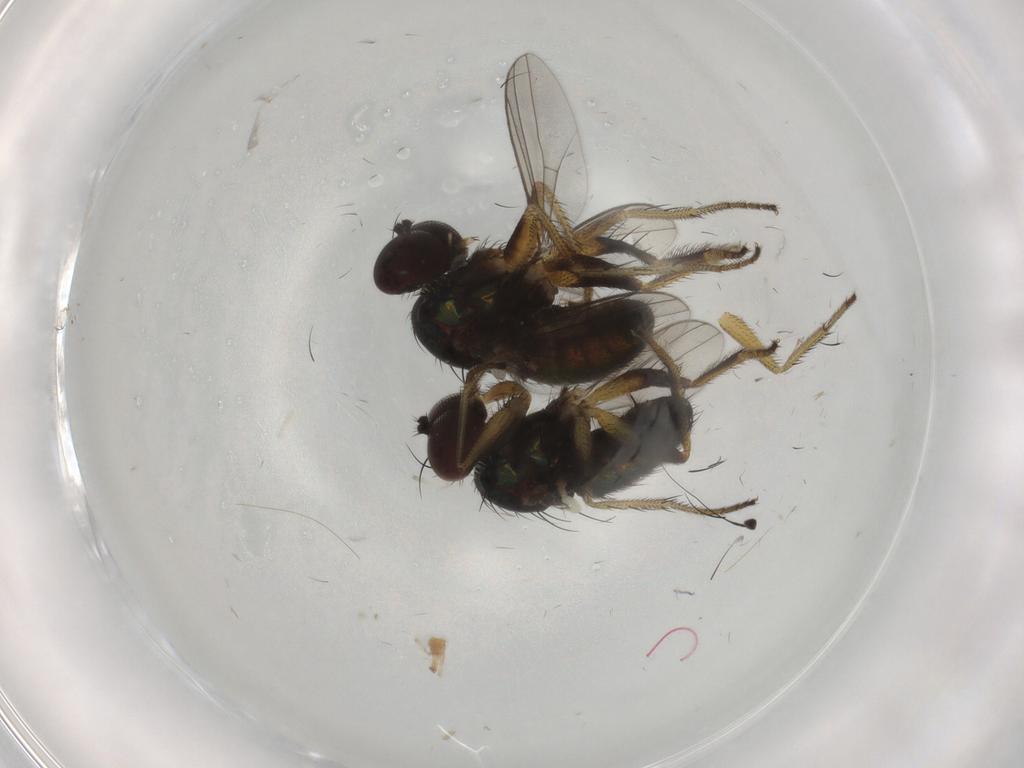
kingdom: Animalia
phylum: Arthropoda
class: Insecta
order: Diptera
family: Dolichopodidae
